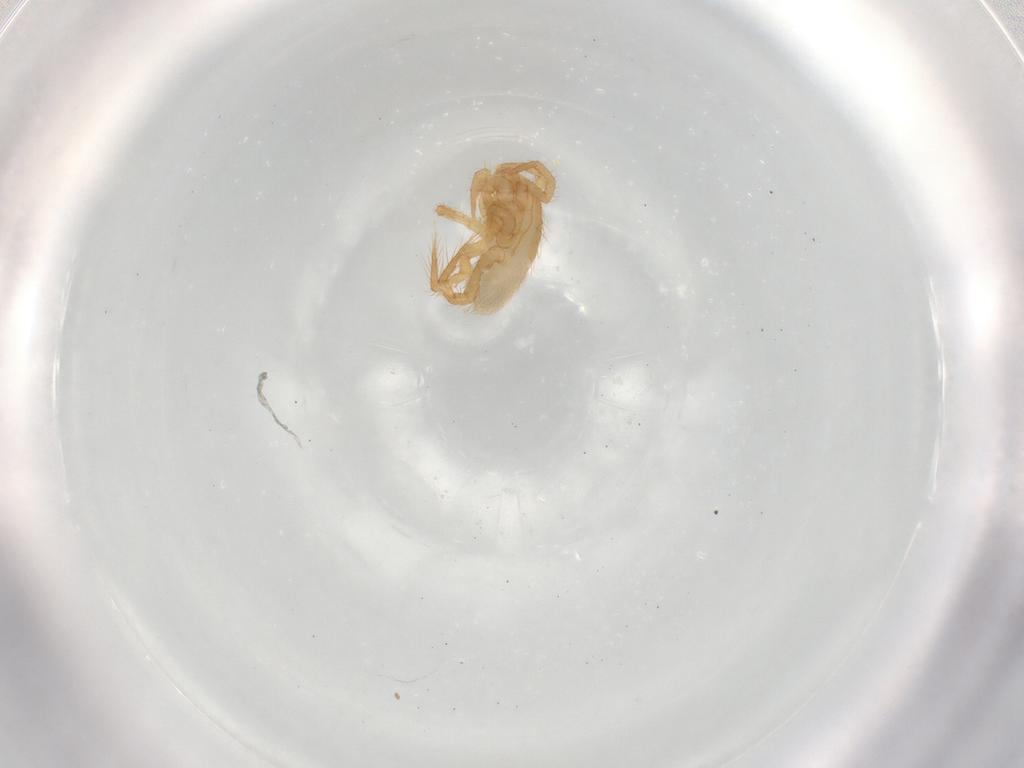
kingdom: Animalia
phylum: Arthropoda
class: Arachnida
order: Mesostigmata
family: Parasitidae
